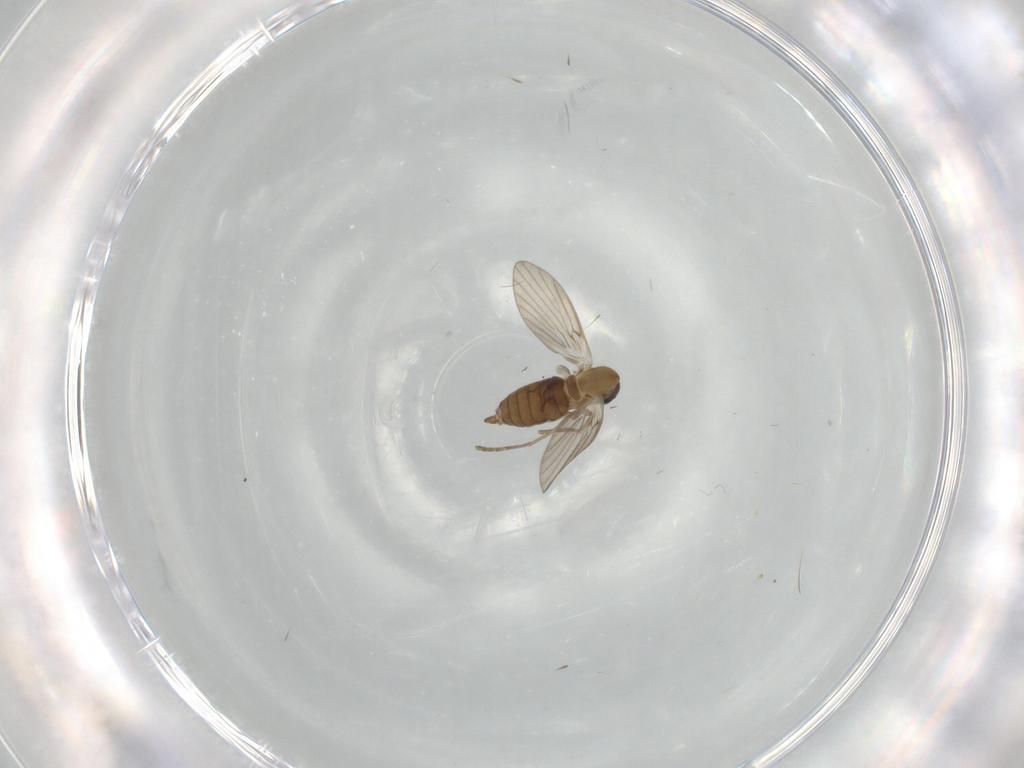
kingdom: Animalia
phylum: Arthropoda
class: Insecta
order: Diptera
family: Psychodidae
